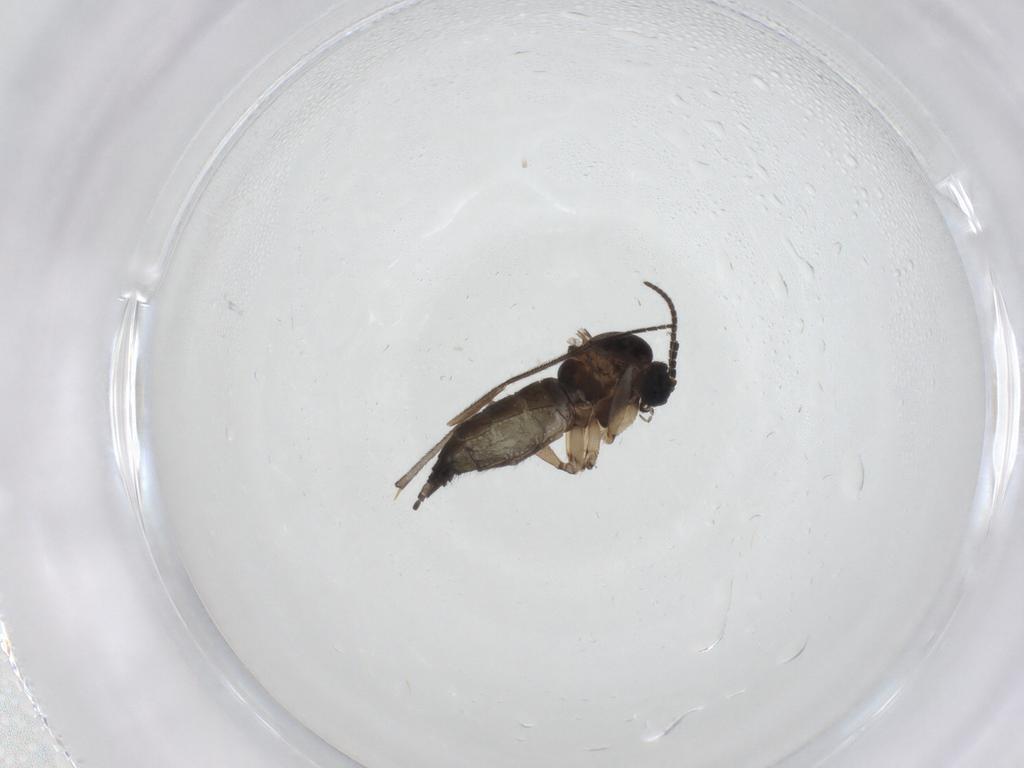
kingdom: Animalia
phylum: Arthropoda
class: Insecta
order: Diptera
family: Sciaridae
